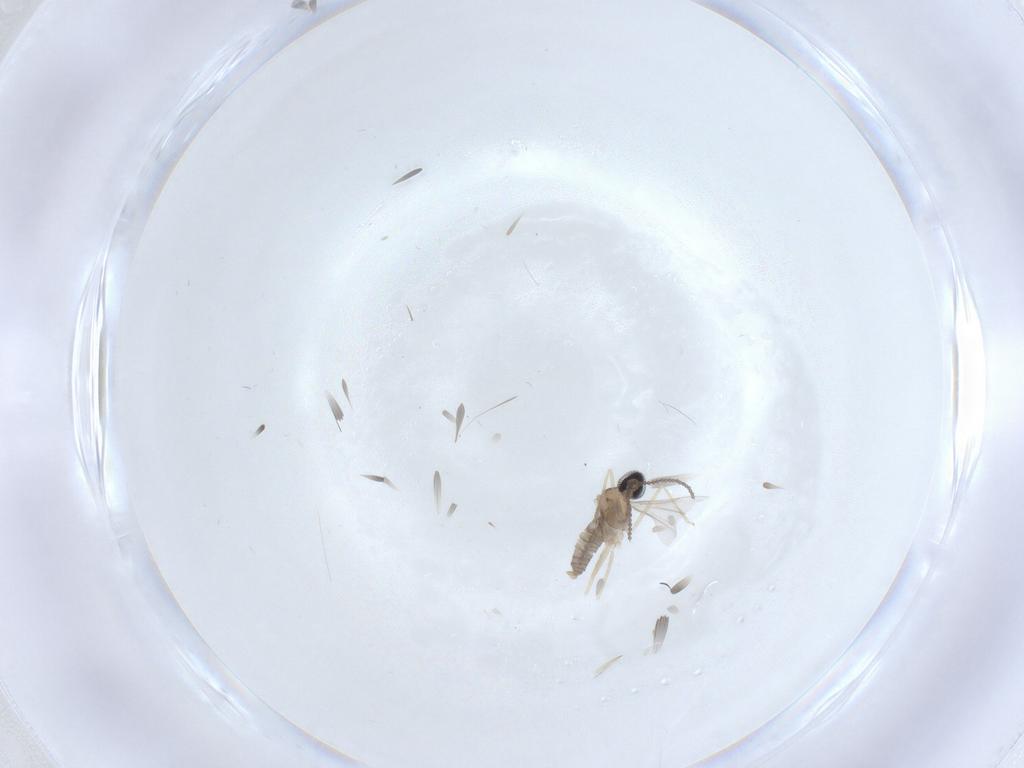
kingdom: Animalia
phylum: Arthropoda
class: Insecta
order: Diptera
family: Cecidomyiidae
